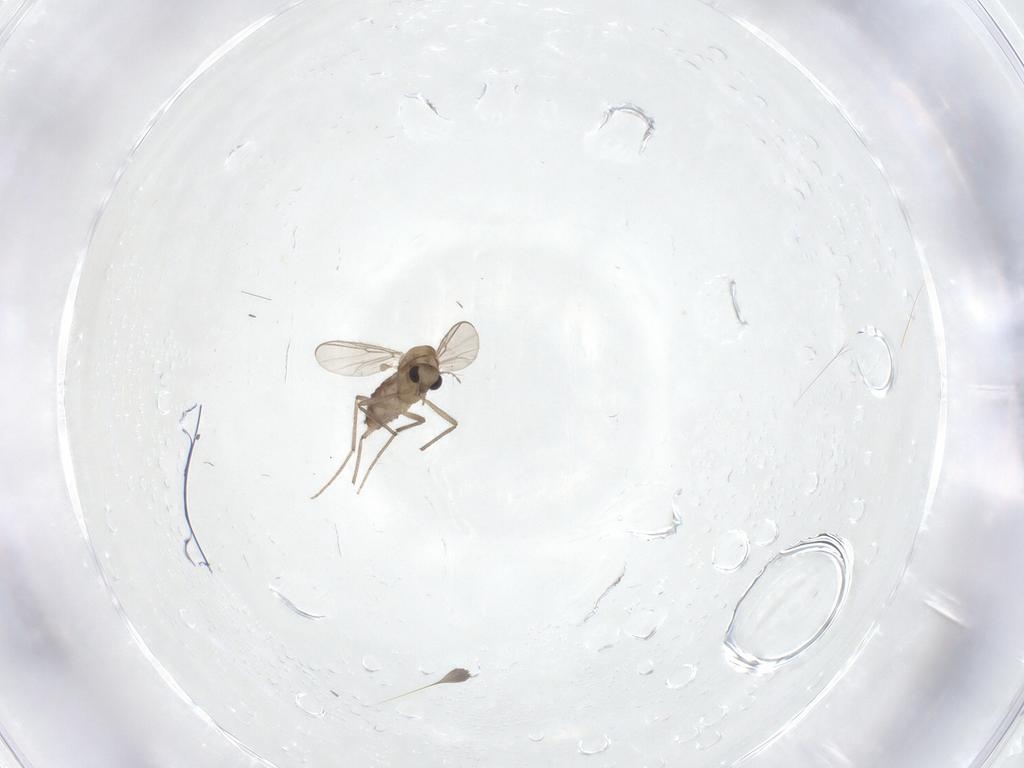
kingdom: Animalia
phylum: Arthropoda
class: Insecta
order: Diptera
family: Chironomidae
